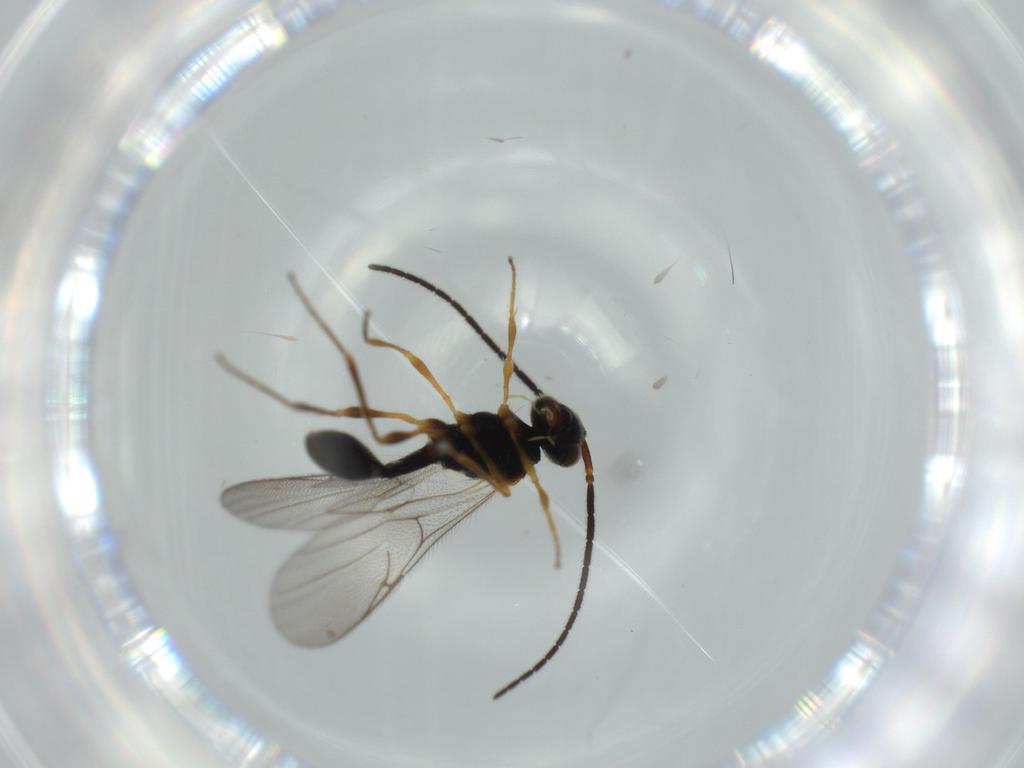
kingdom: Animalia
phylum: Arthropoda
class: Insecta
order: Hymenoptera
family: Formicidae
